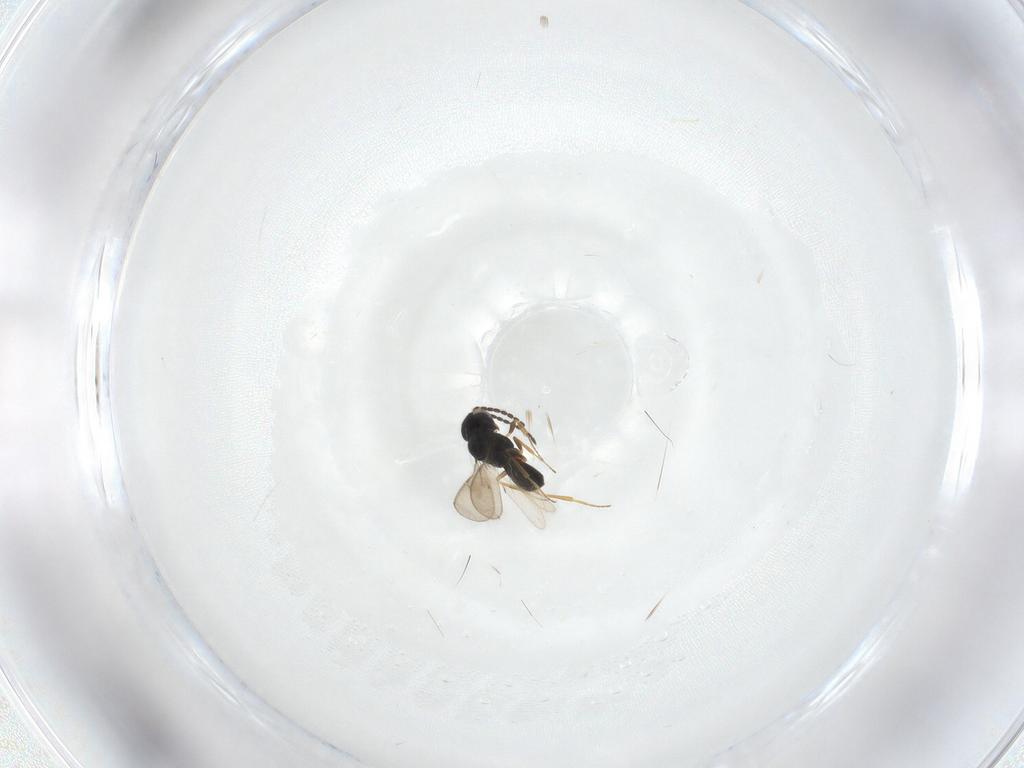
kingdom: Animalia
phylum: Arthropoda
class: Insecta
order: Hymenoptera
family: Scelionidae
